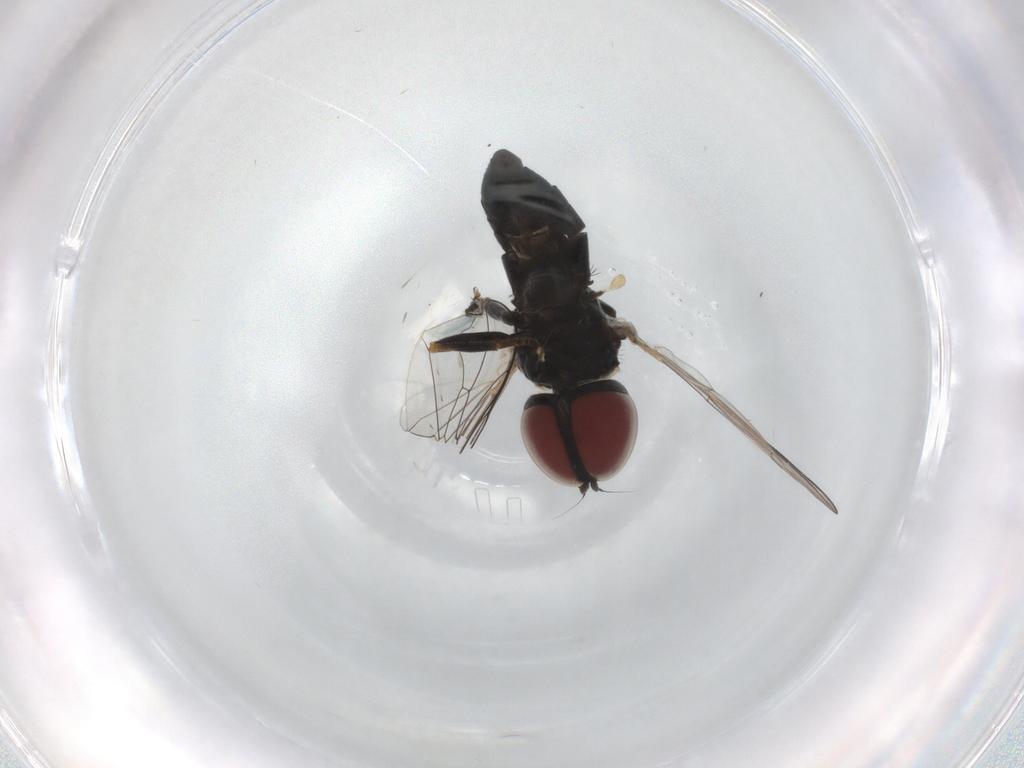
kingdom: Animalia
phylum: Arthropoda
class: Insecta
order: Diptera
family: Pipunculidae
